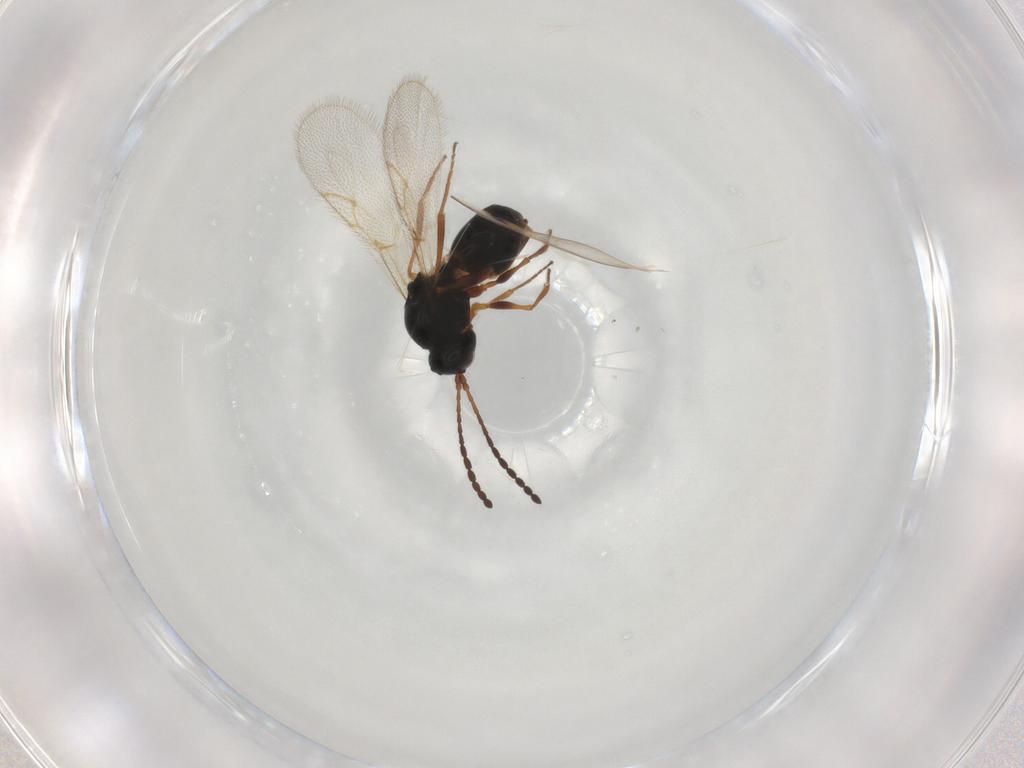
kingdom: Animalia
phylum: Arthropoda
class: Insecta
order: Hymenoptera
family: Figitidae
